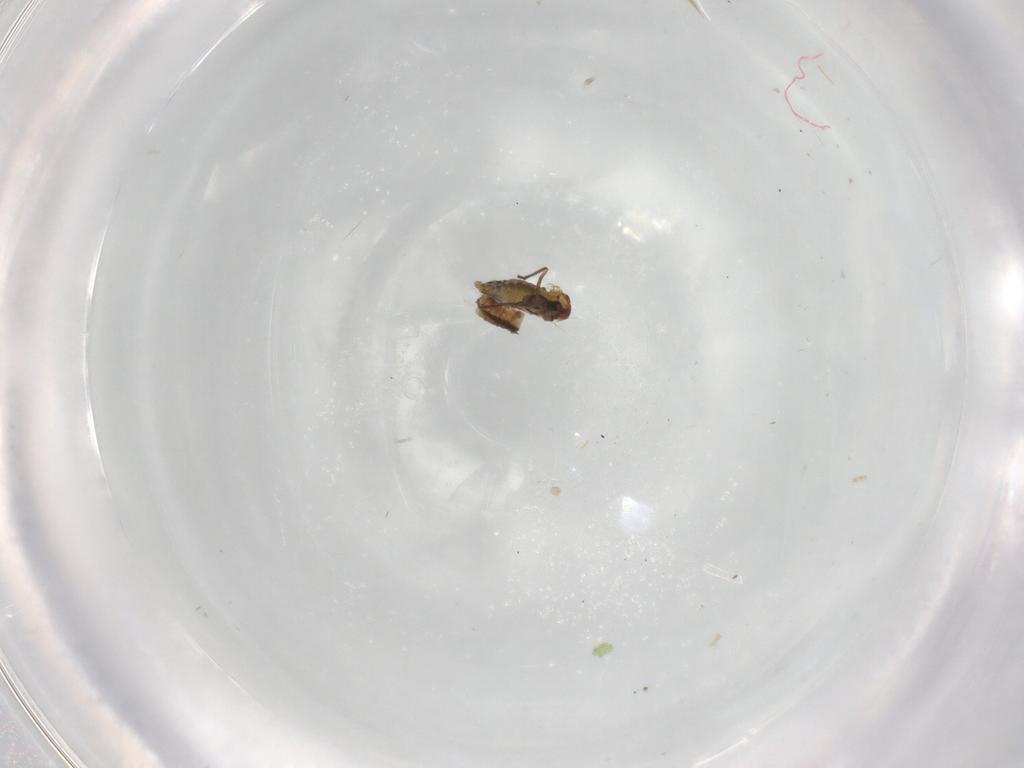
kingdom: Animalia
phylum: Arthropoda
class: Insecta
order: Diptera
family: Chironomidae
